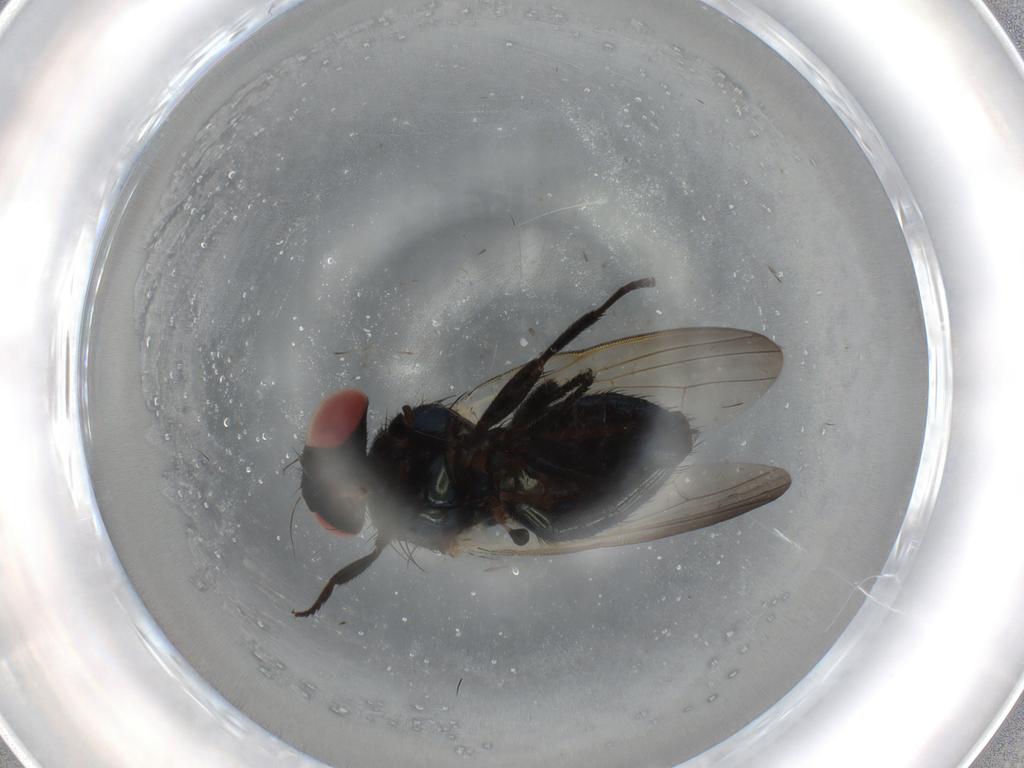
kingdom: Animalia
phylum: Arthropoda
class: Insecta
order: Diptera
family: Lonchaeidae
